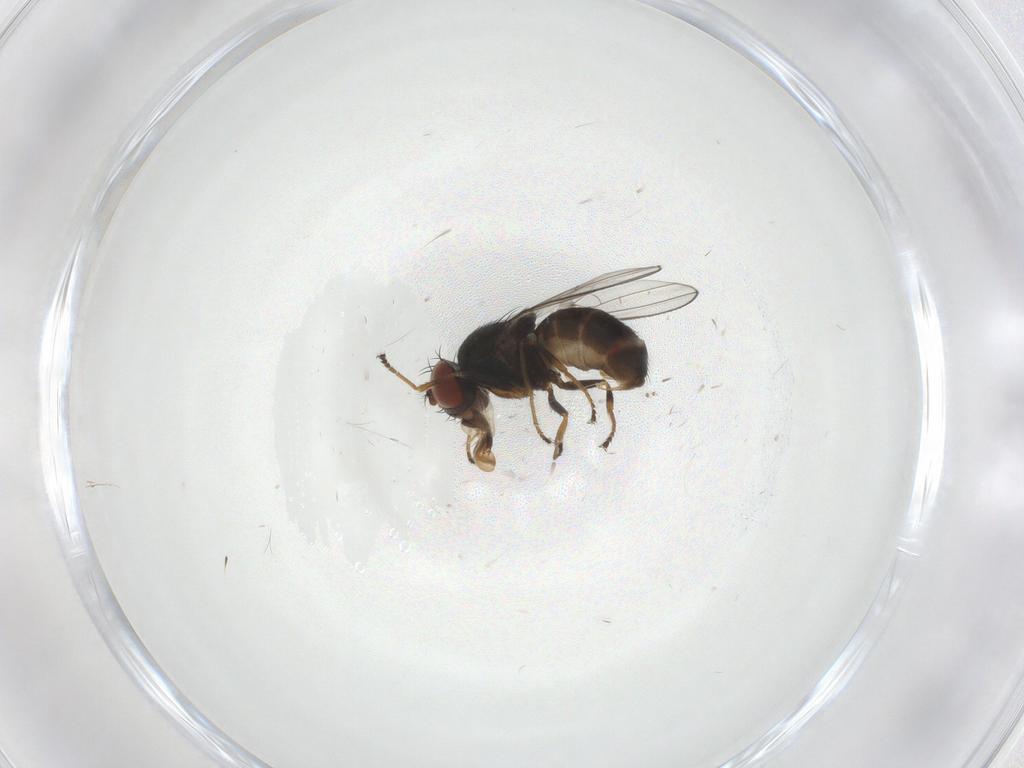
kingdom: Animalia
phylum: Arthropoda
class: Insecta
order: Diptera
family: Ephydridae
